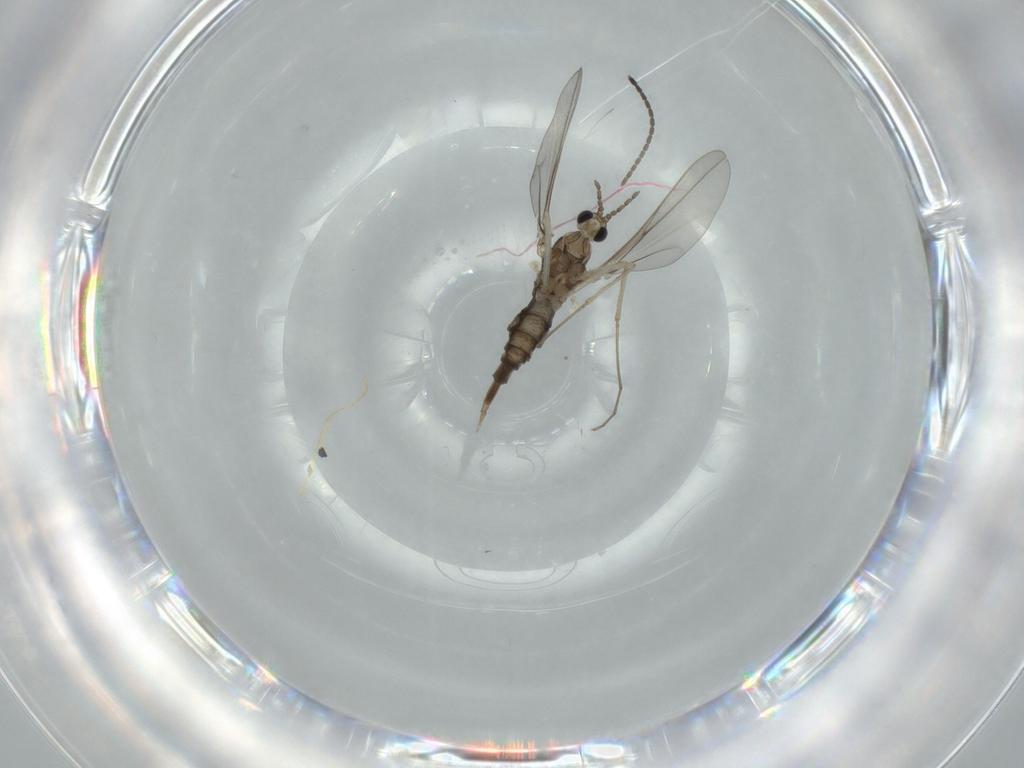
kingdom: Animalia
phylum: Arthropoda
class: Insecta
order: Diptera
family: Cecidomyiidae
